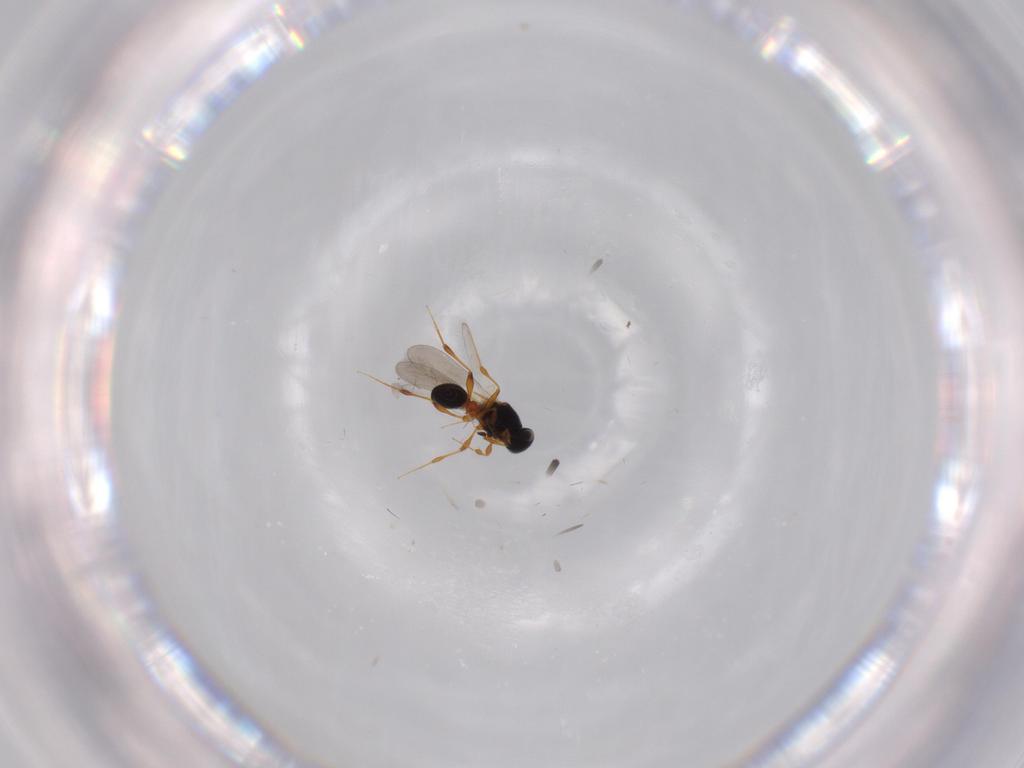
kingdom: Animalia
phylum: Arthropoda
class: Insecta
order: Hymenoptera
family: Platygastridae
